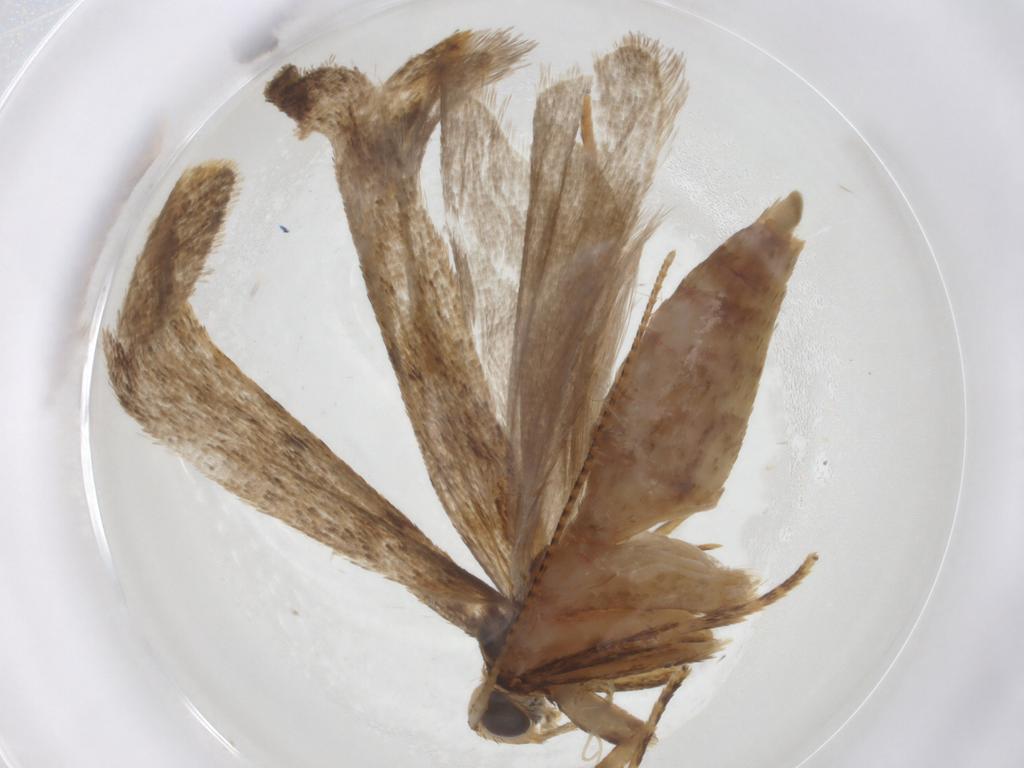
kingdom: Animalia
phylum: Arthropoda
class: Insecta
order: Lepidoptera
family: Autostichidae
